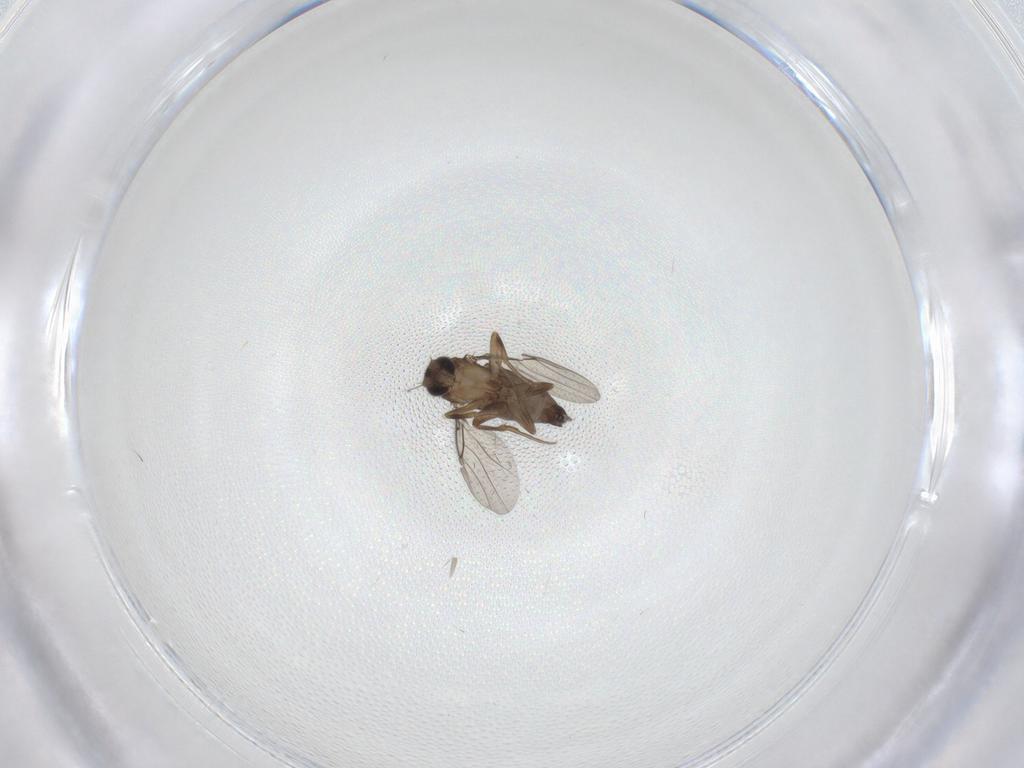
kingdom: Animalia
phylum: Arthropoda
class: Insecta
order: Diptera
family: Phoridae
